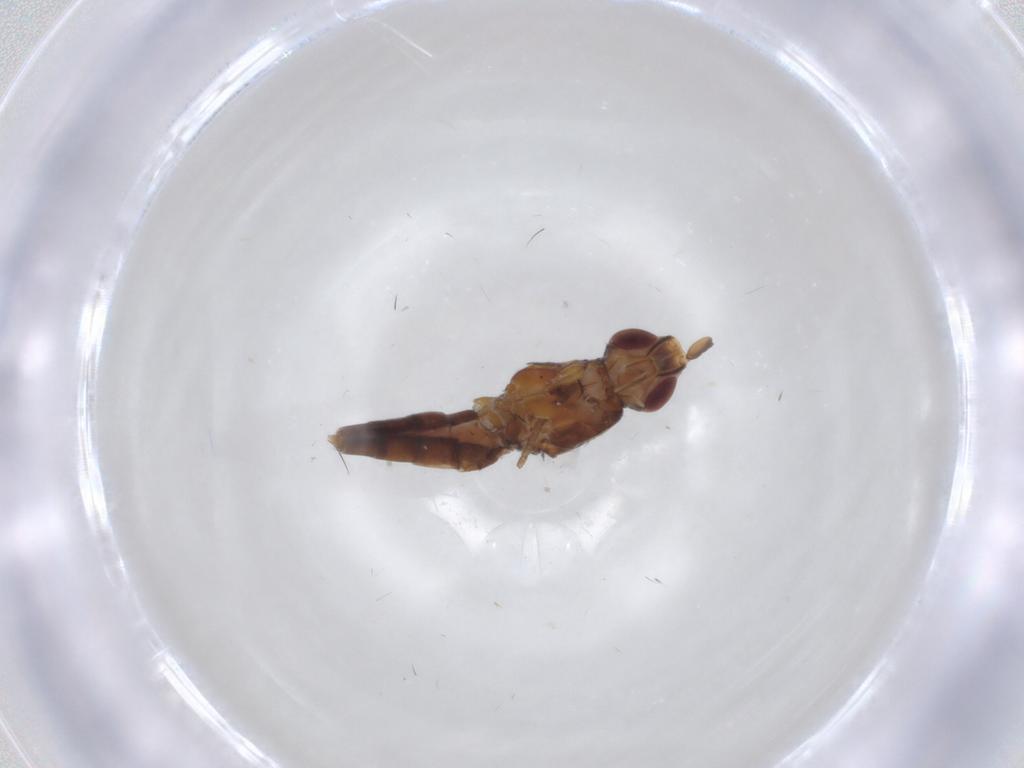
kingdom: Animalia
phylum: Arthropoda
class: Insecta
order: Diptera
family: Chloropidae
